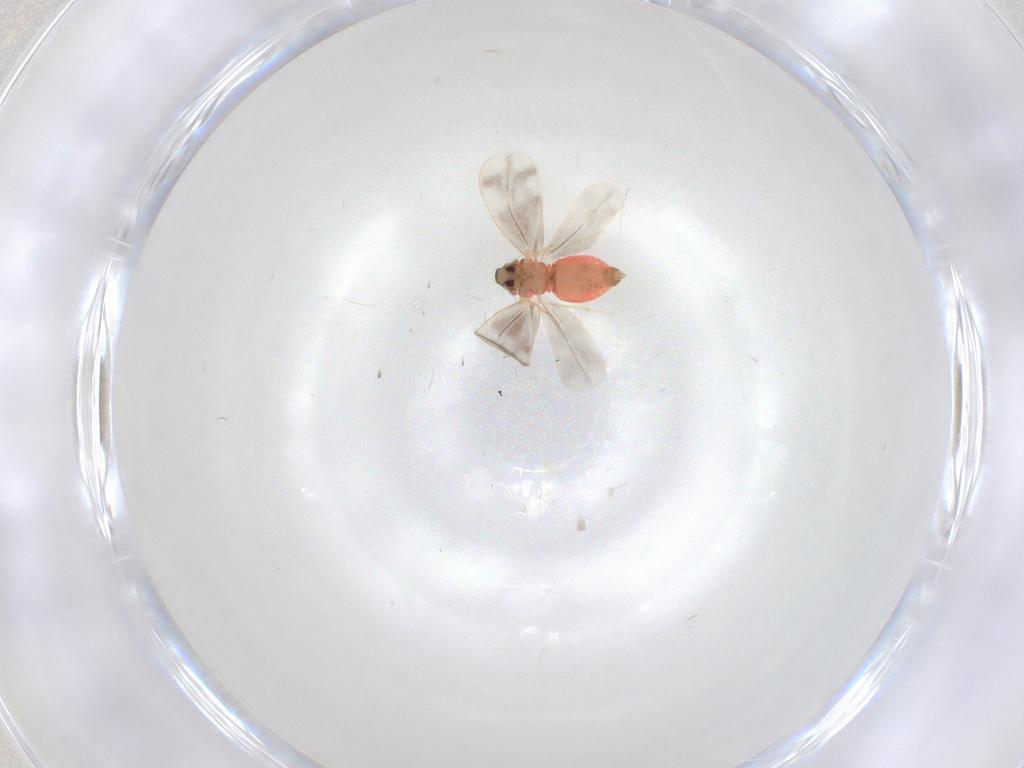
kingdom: Animalia
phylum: Arthropoda
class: Insecta
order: Hemiptera
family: Aleyrodidae
